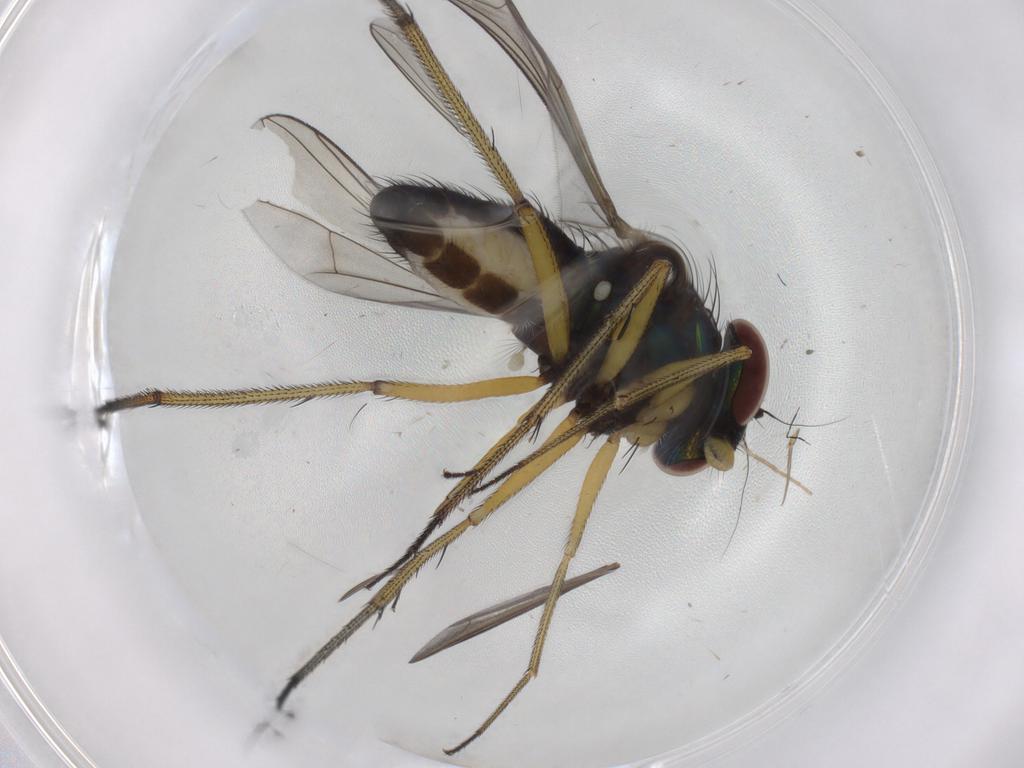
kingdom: Animalia
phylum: Arthropoda
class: Insecta
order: Diptera
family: Dolichopodidae
